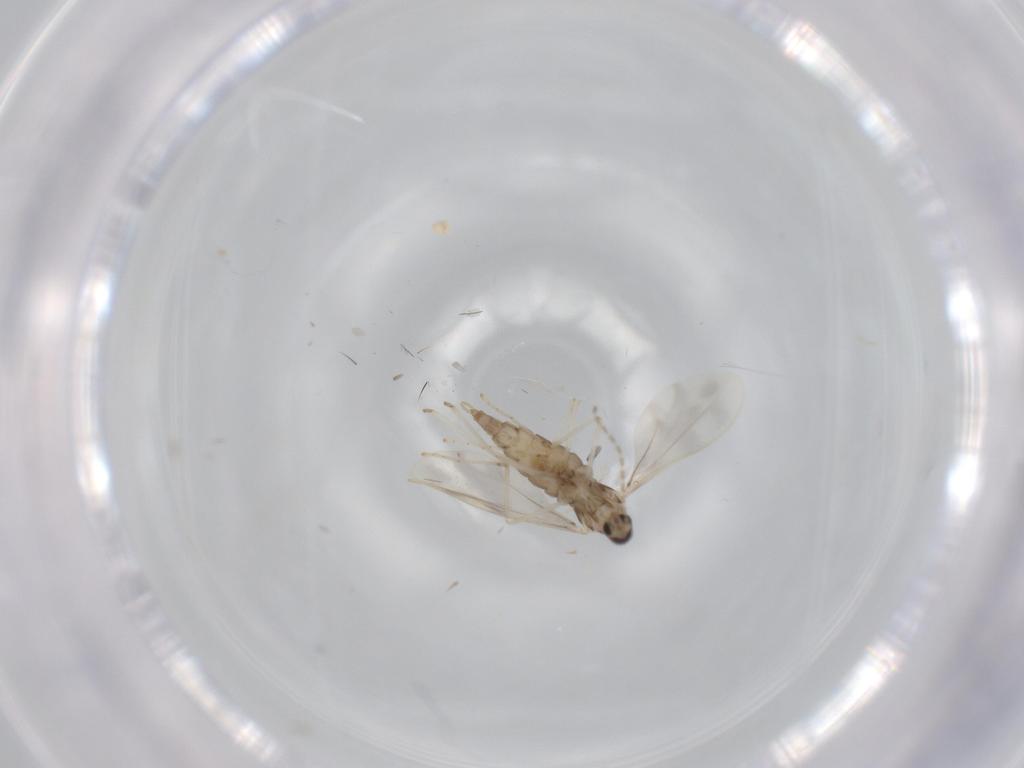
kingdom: Animalia
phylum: Arthropoda
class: Insecta
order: Diptera
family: Cecidomyiidae
